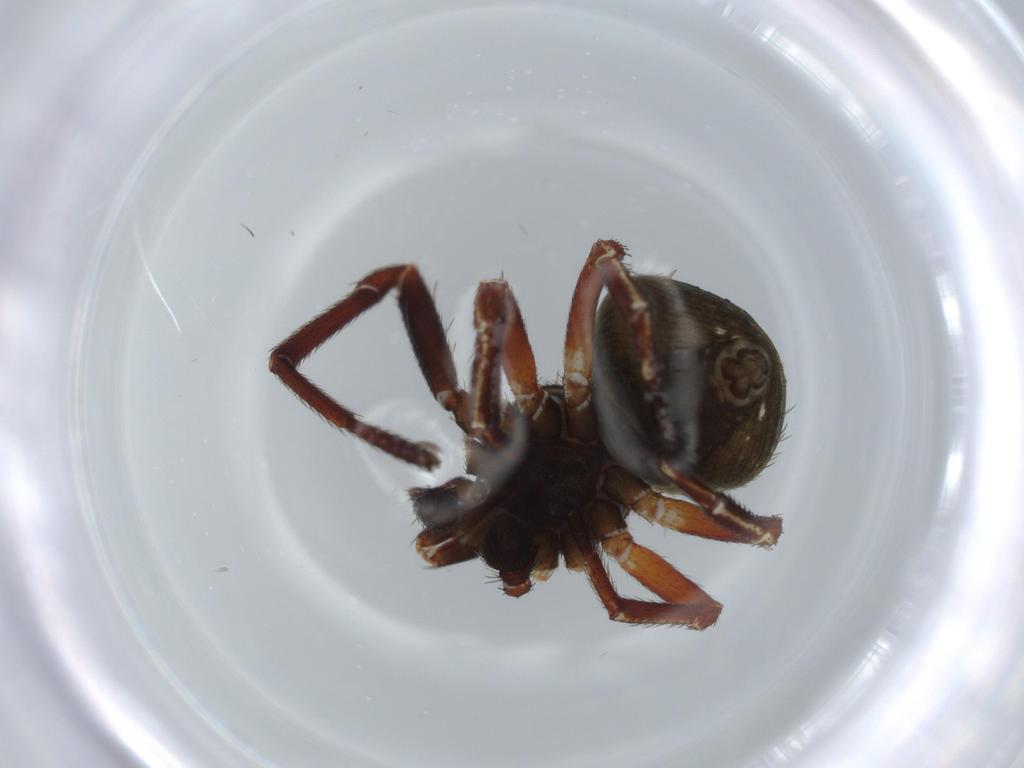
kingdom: Animalia
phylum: Arthropoda
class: Arachnida
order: Araneae
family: Thomisidae
